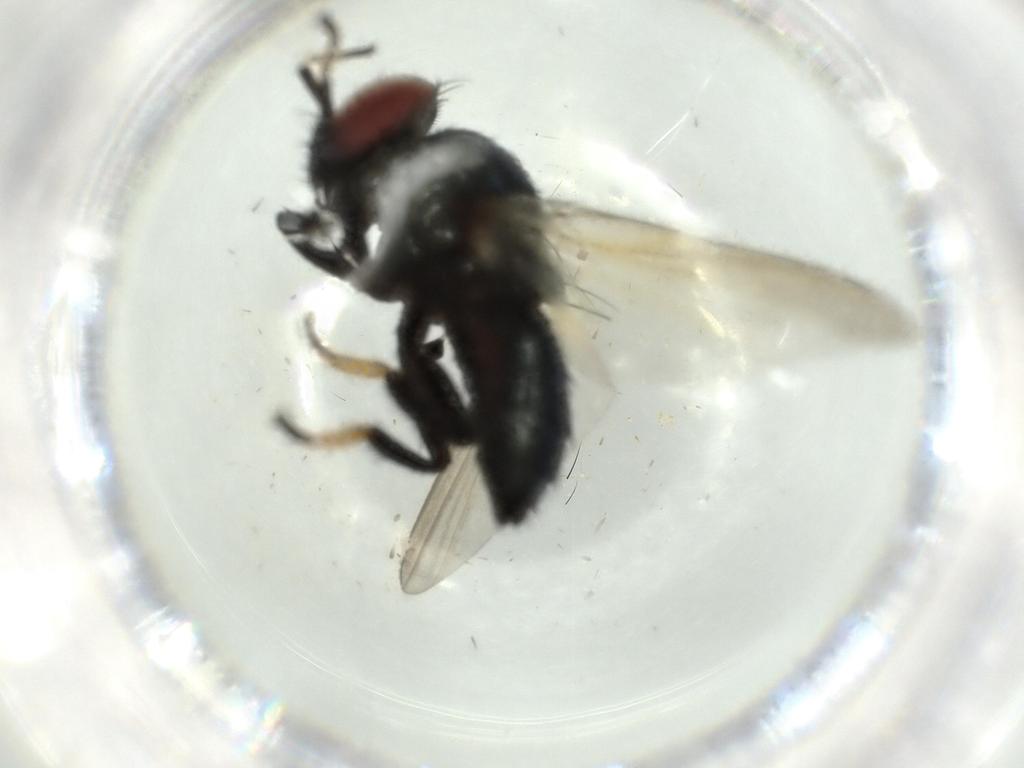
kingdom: Animalia
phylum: Arthropoda
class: Insecta
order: Diptera
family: Lonchaeidae
